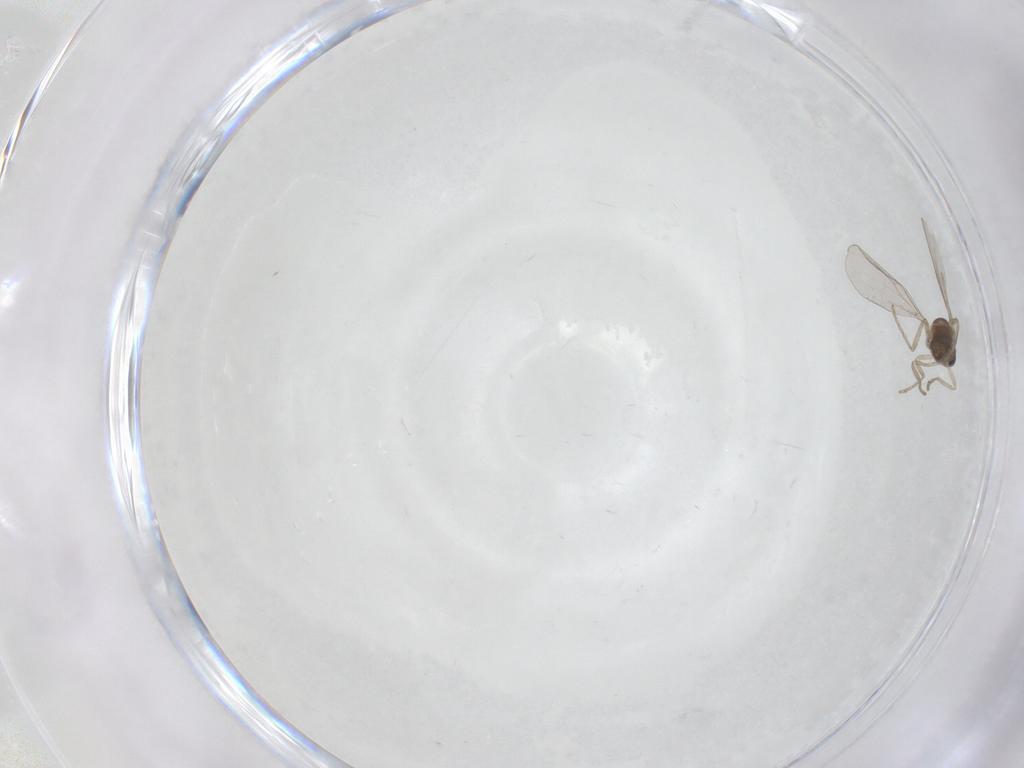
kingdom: Animalia
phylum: Arthropoda
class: Insecta
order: Diptera
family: Cecidomyiidae
